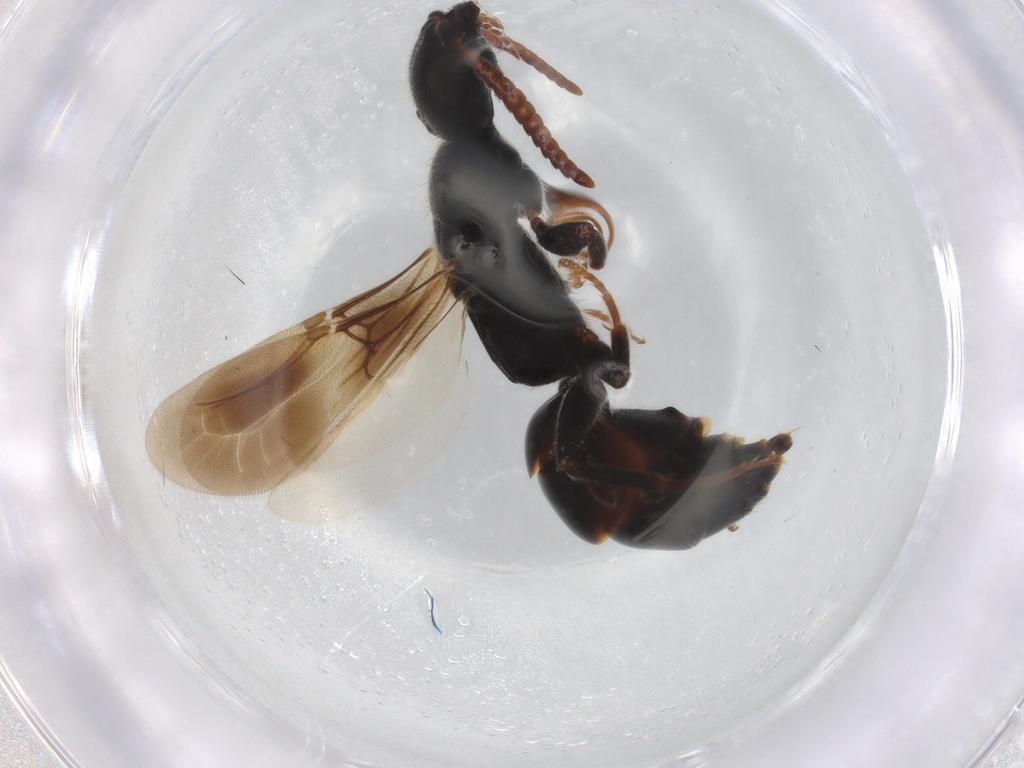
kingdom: Animalia
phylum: Arthropoda
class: Insecta
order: Hymenoptera
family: Bethylidae
